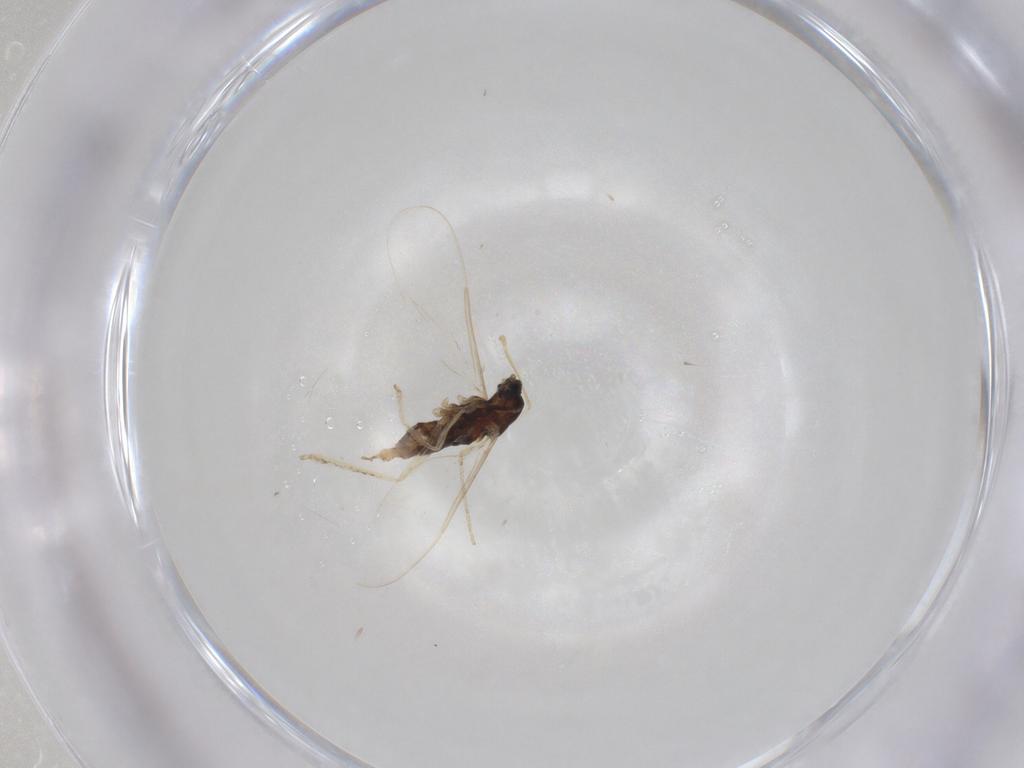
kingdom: Animalia
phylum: Arthropoda
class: Insecta
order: Diptera
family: Cecidomyiidae
